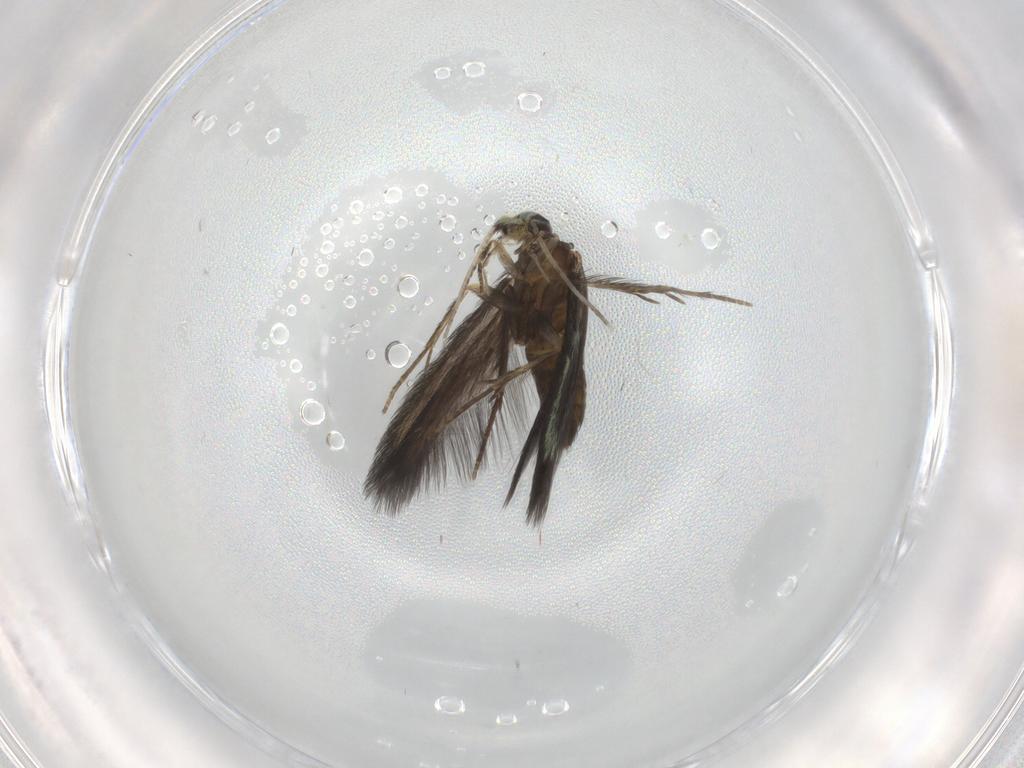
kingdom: Animalia
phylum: Arthropoda
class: Insecta
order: Trichoptera
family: Hydroptilidae
